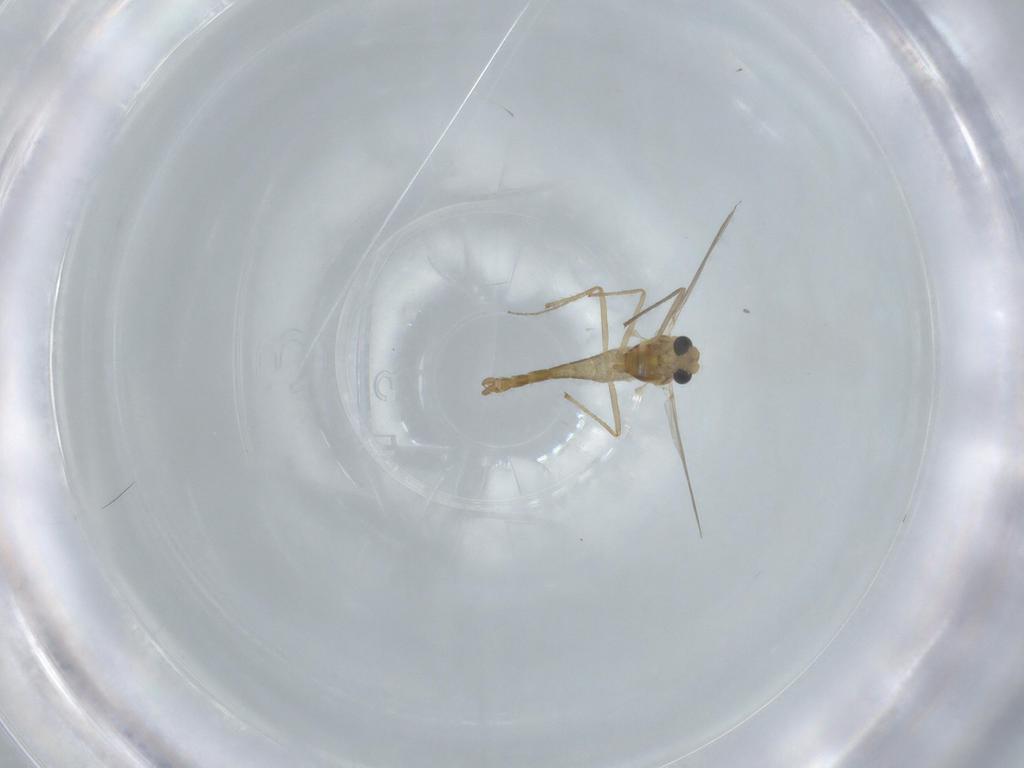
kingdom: Animalia
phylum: Arthropoda
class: Insecta
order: Diptera
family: Chironomidae
